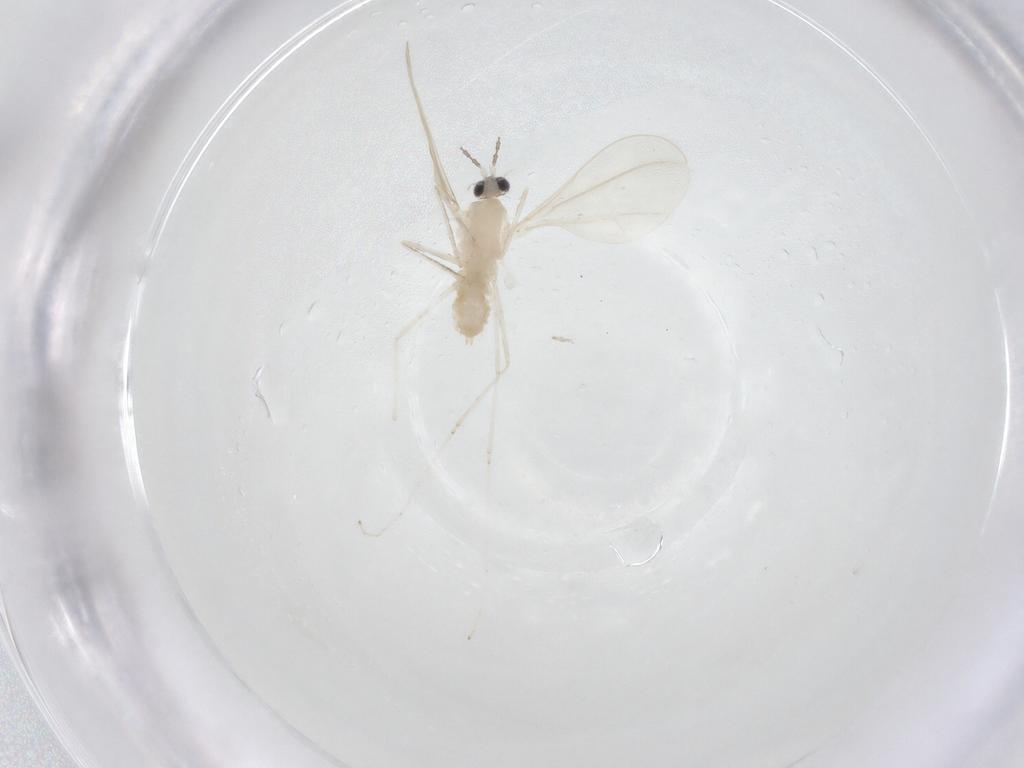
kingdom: Animalia
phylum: Arthropoda
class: Insecta
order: Diptera
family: Cecidomyiidae
